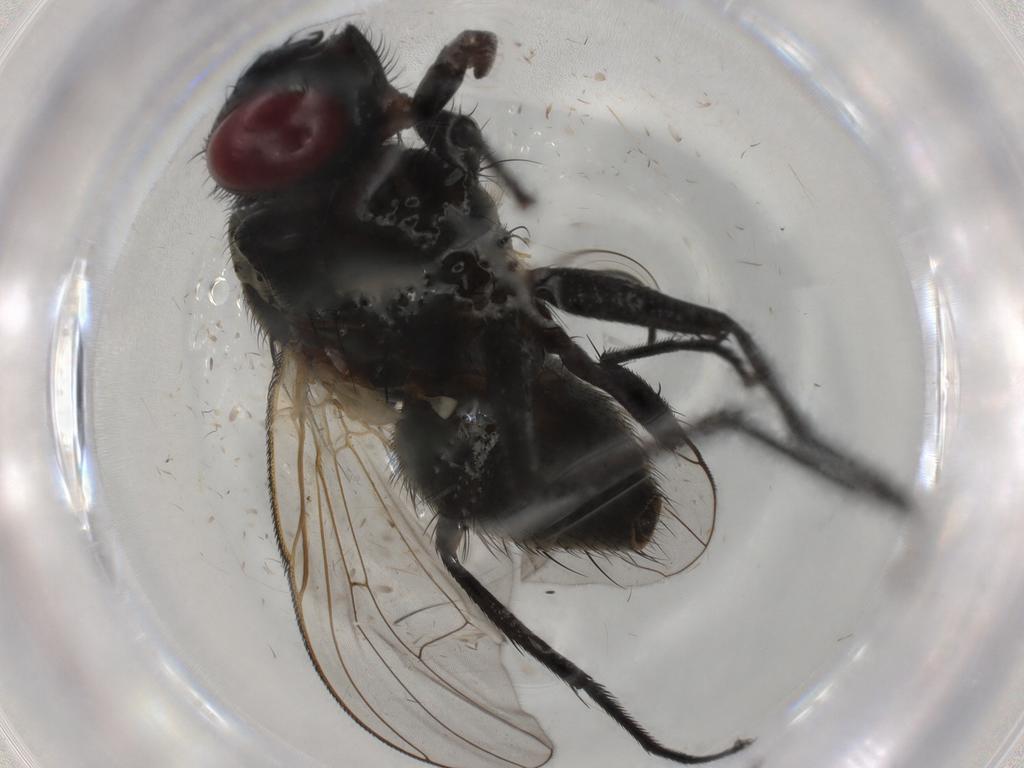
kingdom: Animalia
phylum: Arthropoda
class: Insecta
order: Diptera
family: Muscidae
